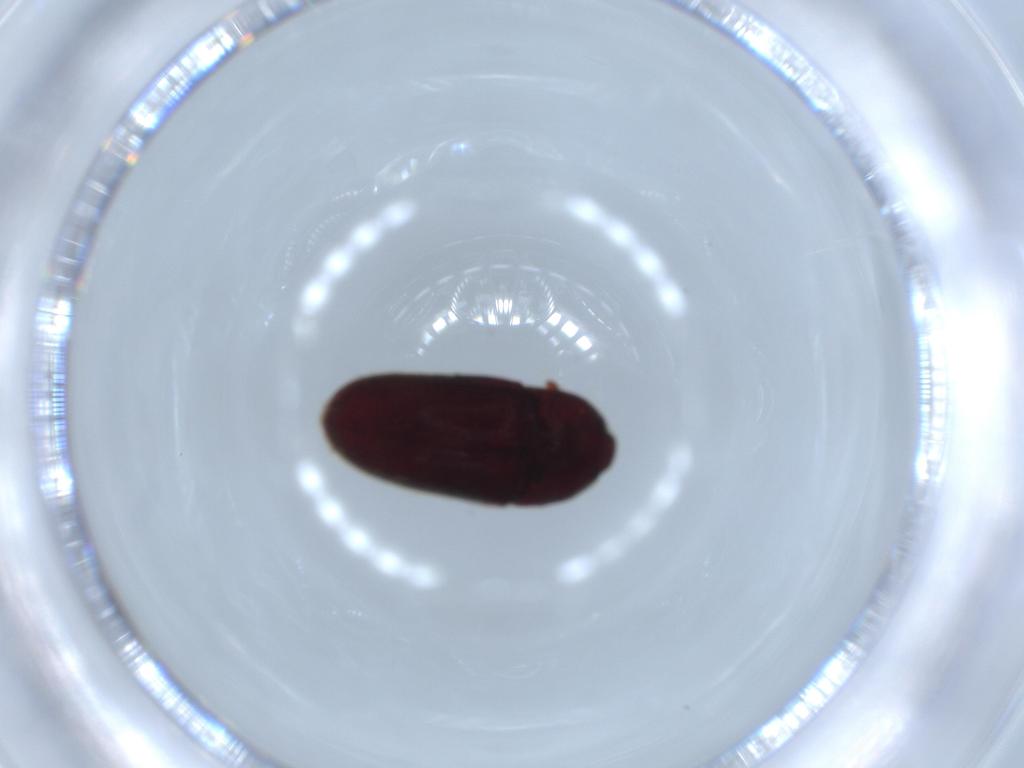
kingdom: Animalia
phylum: Arthropoda
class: Insecta
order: Coleoptera
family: Throscidae
